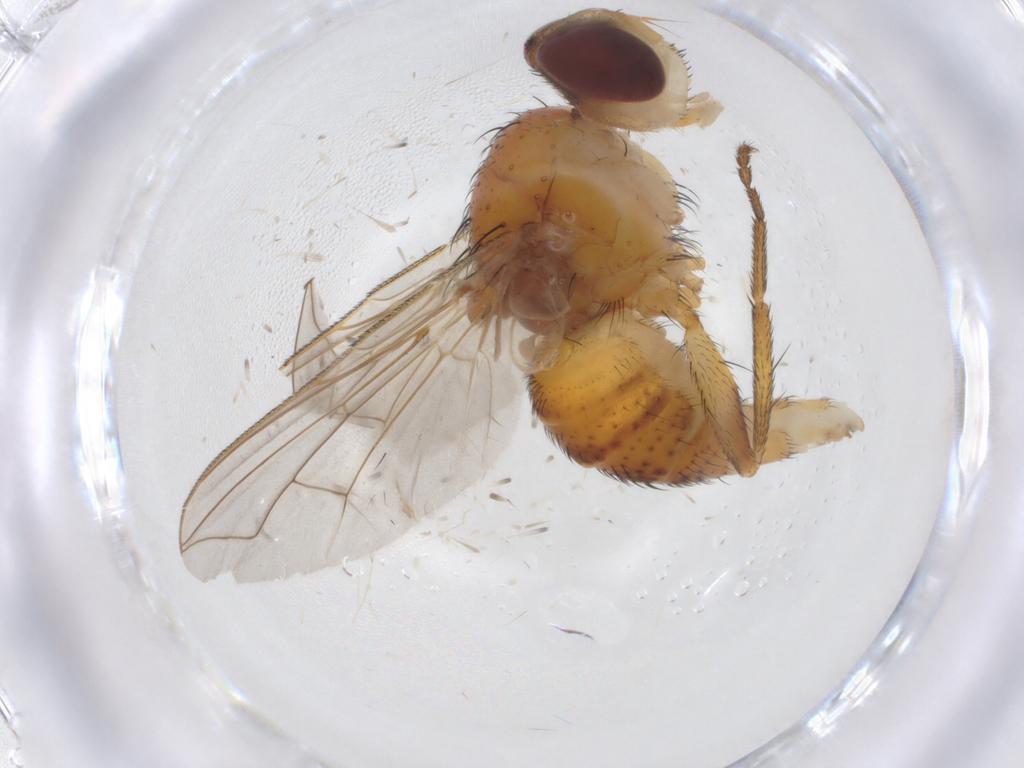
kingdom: Animalia
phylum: Arthropoda
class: Insecta
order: Diptera
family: Tachinidae
